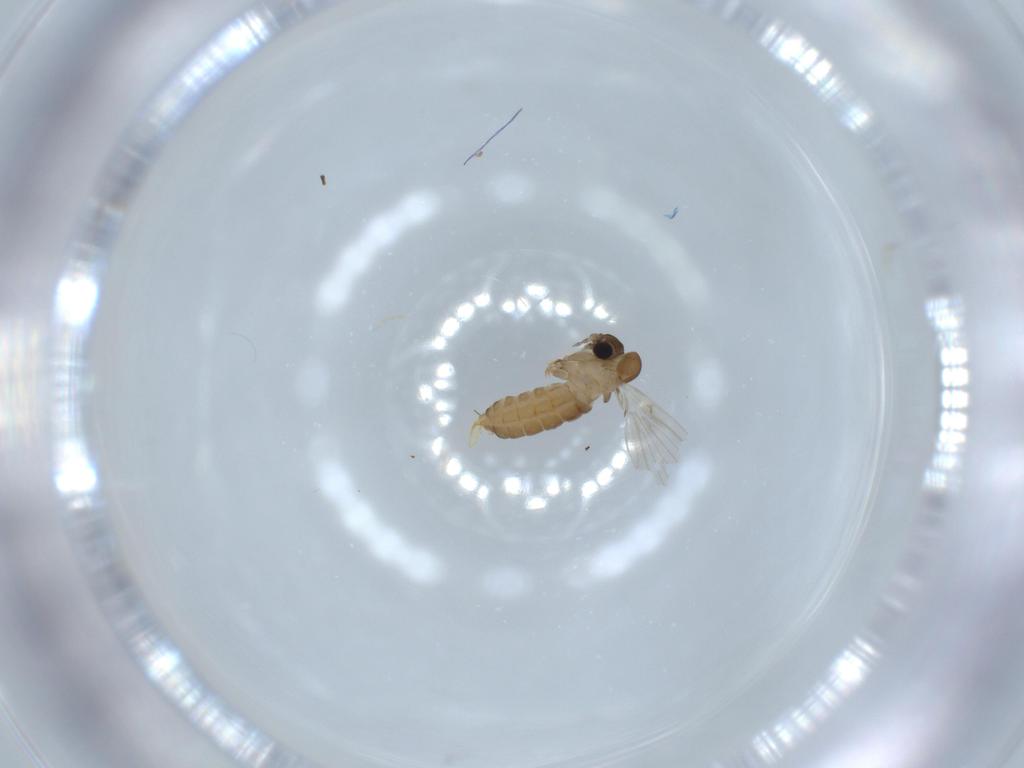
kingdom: Animalia
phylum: Arthropoda
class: Insecta
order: Diptera
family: Psychodidae
